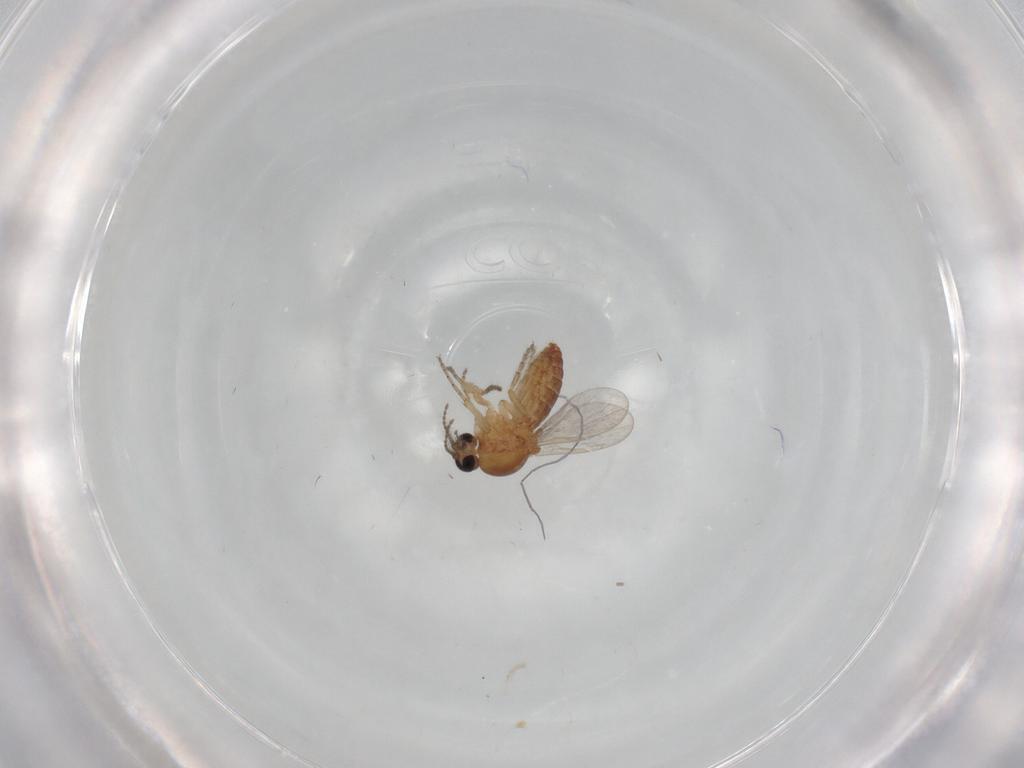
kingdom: Animalia
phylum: Arthropoda
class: Insecta
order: Diptera
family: Ceratopogonidae
